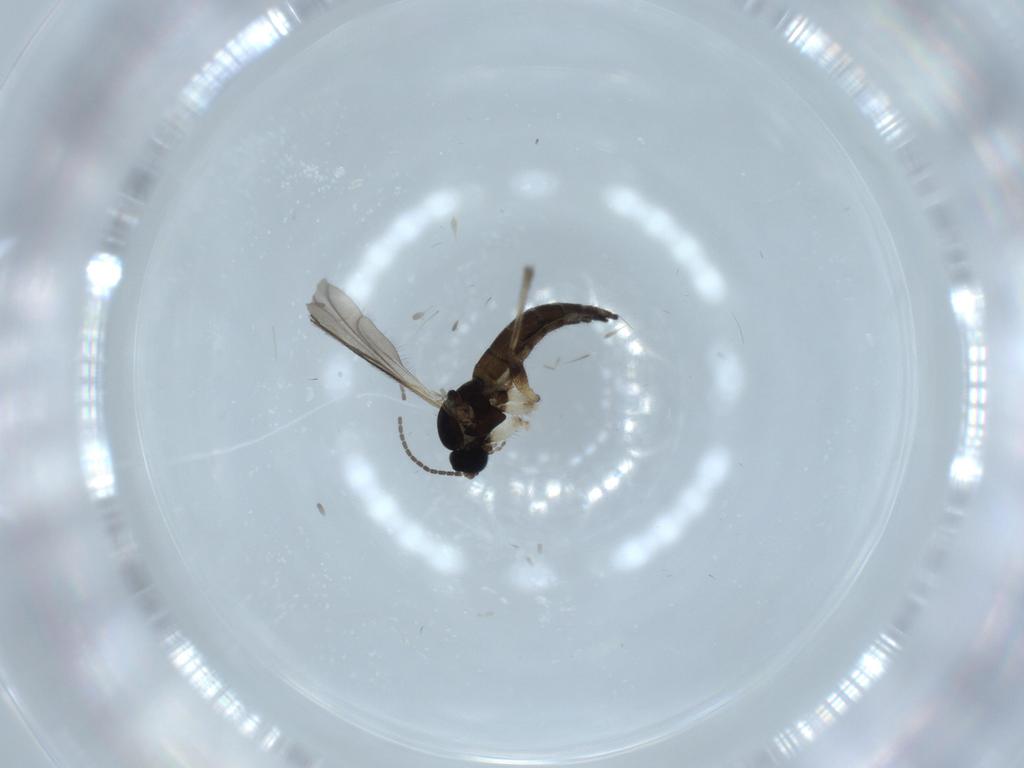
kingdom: Animalia
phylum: Arthropoda
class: Insecta
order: Diptera
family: Sciaridae
